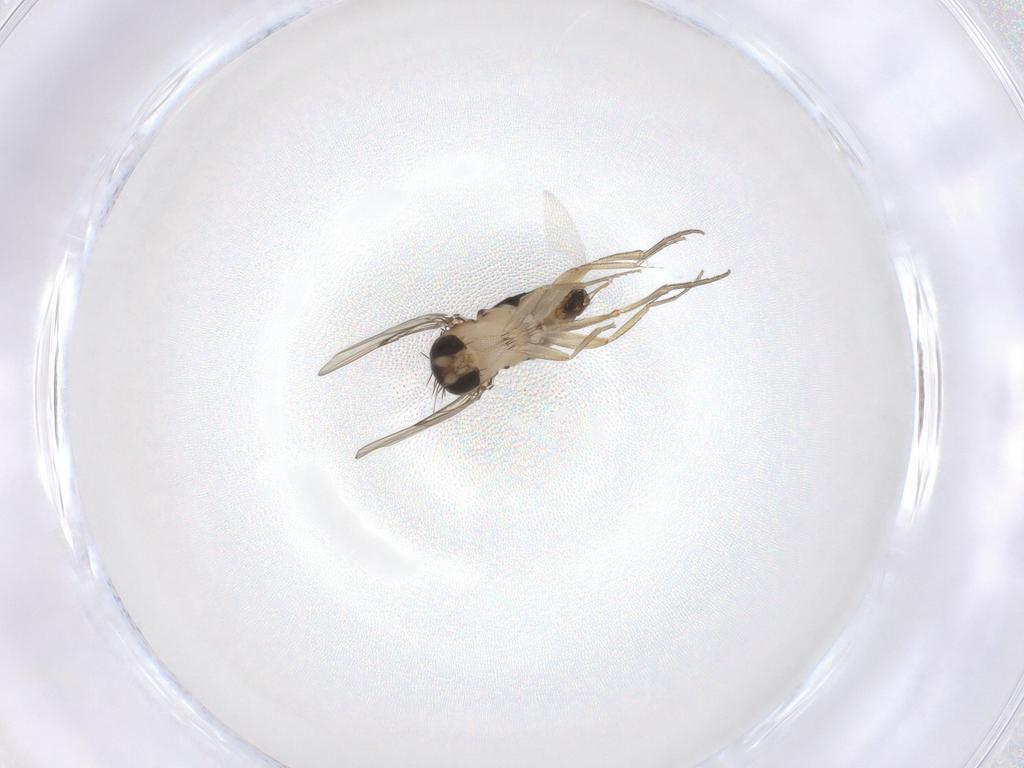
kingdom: Animalia
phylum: Arthropoda
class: Insecta
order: Diptera
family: Phoridae
